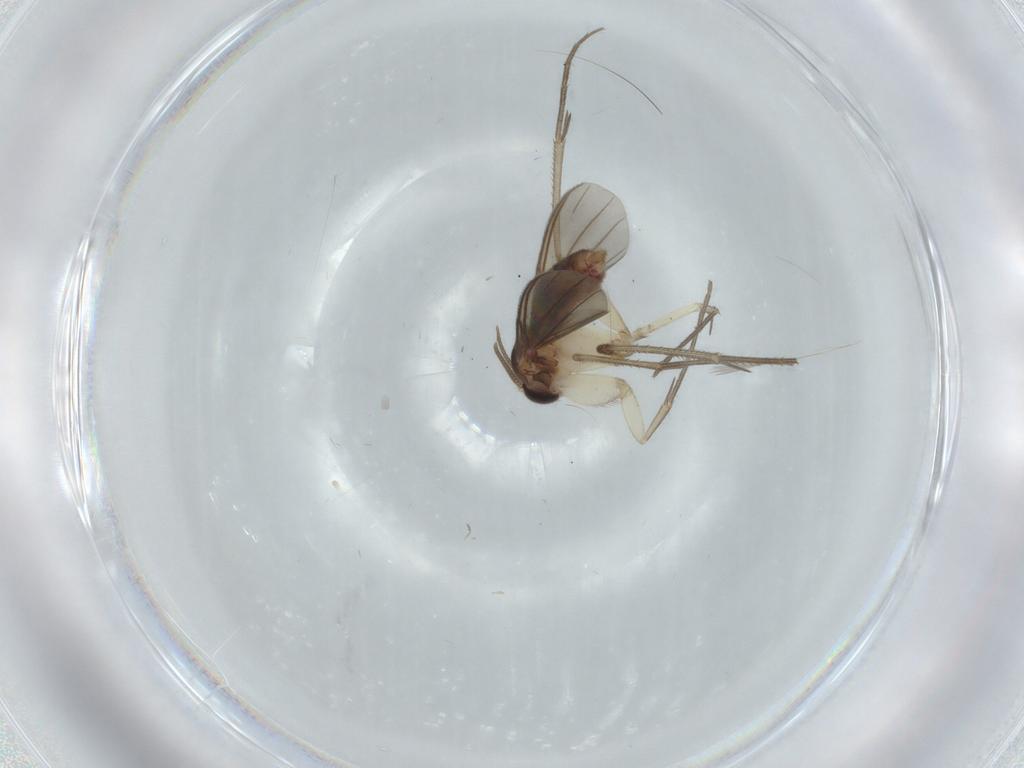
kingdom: Animalia
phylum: Arthropoda
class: Insecta
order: Diptera
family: Mycetophilidae
